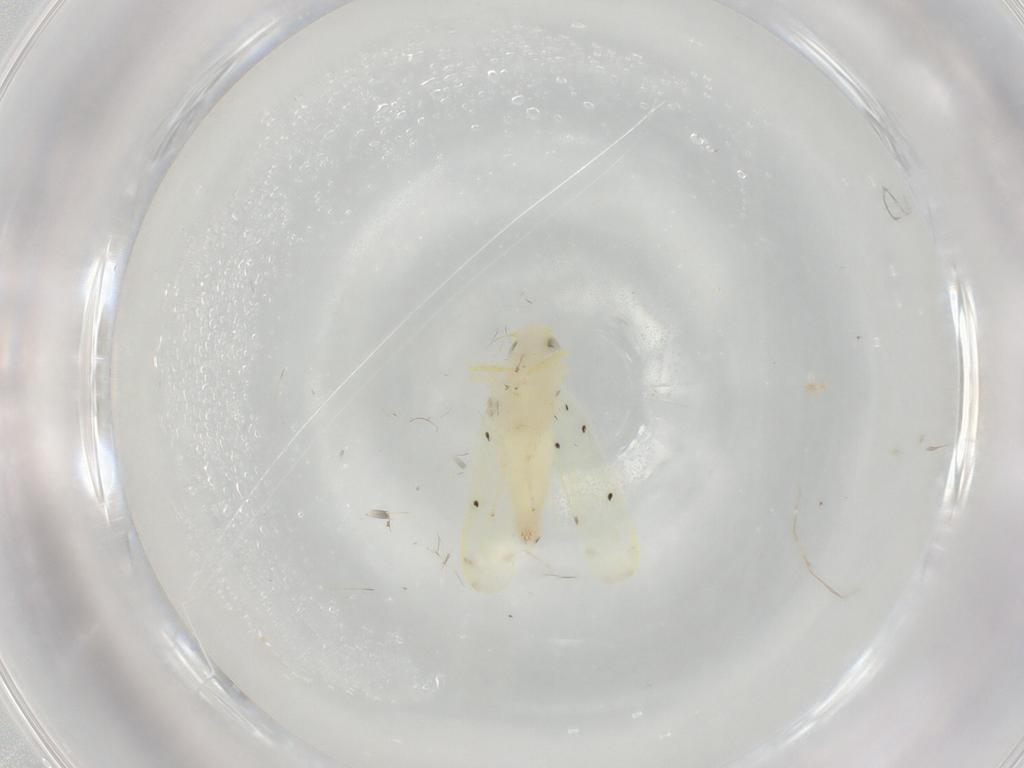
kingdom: Animalia
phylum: Arthropoda
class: Insecta
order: Hemiptera
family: Cicadellidae
